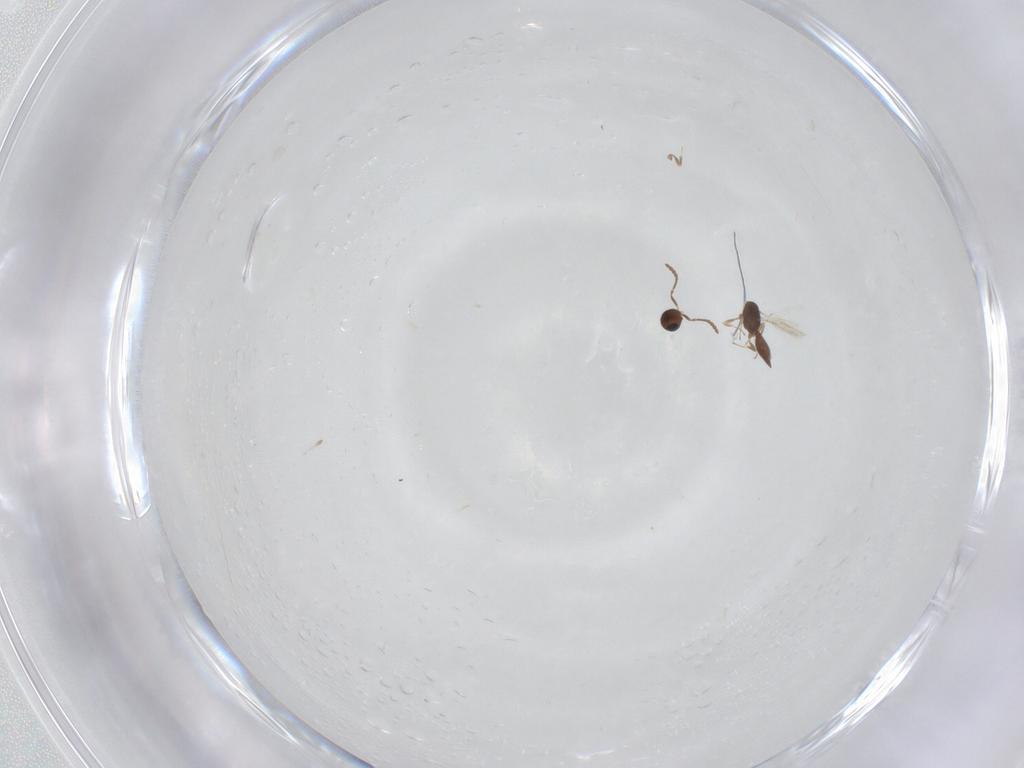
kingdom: Animalia
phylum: Arthropoda
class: Insecta
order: Hymenoptera
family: Scelionidae
